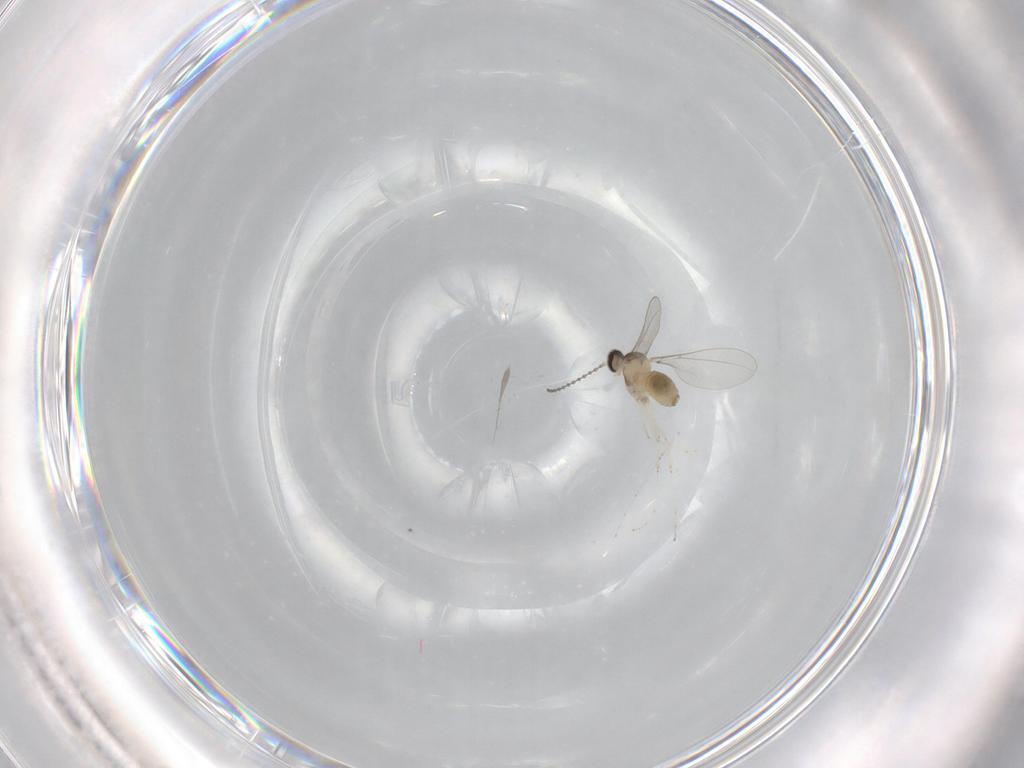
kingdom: Animalia
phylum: Arthropoda
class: Insecta
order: Diptera
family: Cecidomyiidae
